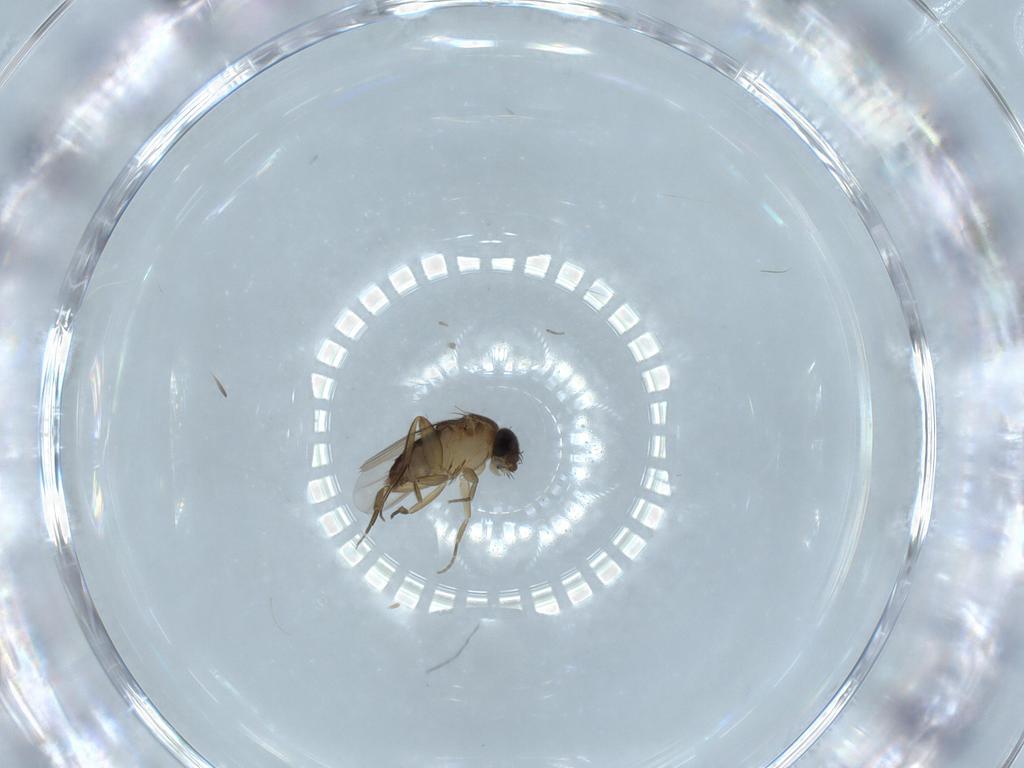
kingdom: Animalia
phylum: Arthropoda
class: Insecta
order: Diptera
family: Phoridae
